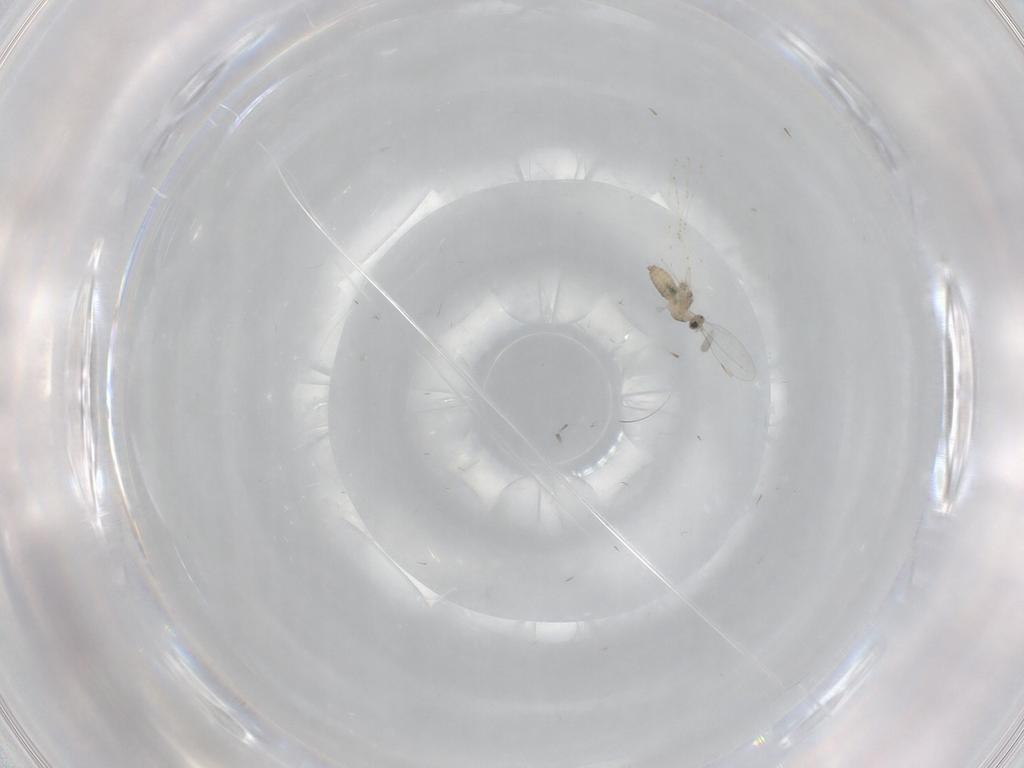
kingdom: Animalia
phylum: Arthropoda
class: Insecta
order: Diptera
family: Cecidomyiidae
